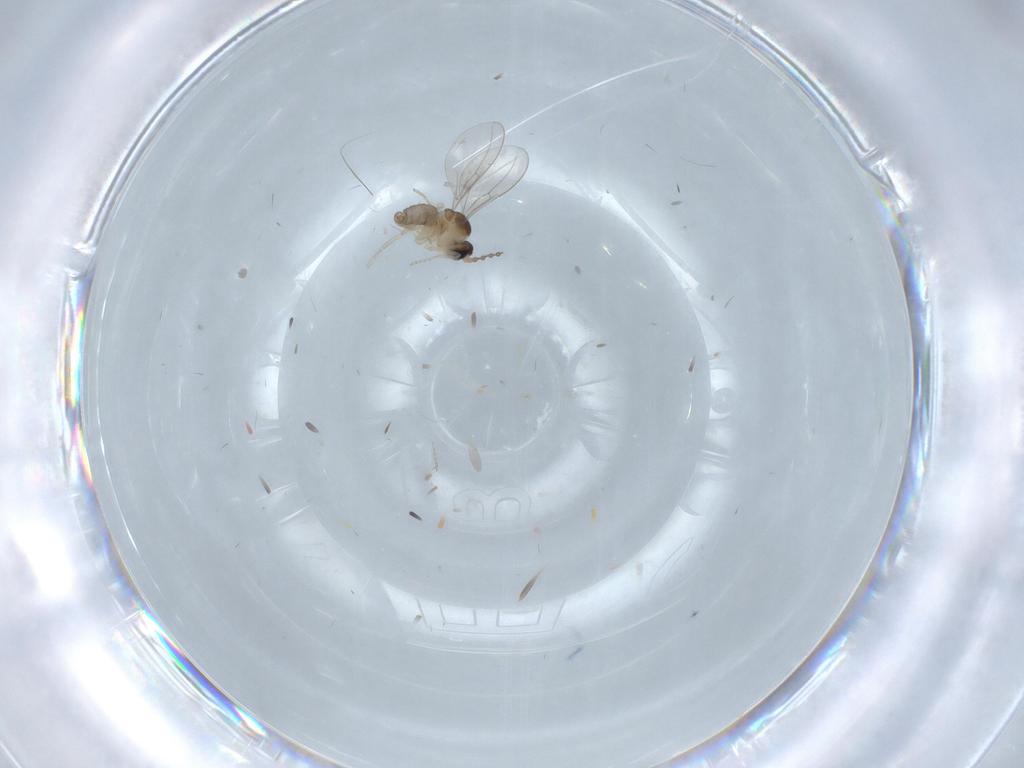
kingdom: Animalia
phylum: Arthropoda
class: Insecta
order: Diptera
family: Cecidomyiidae
